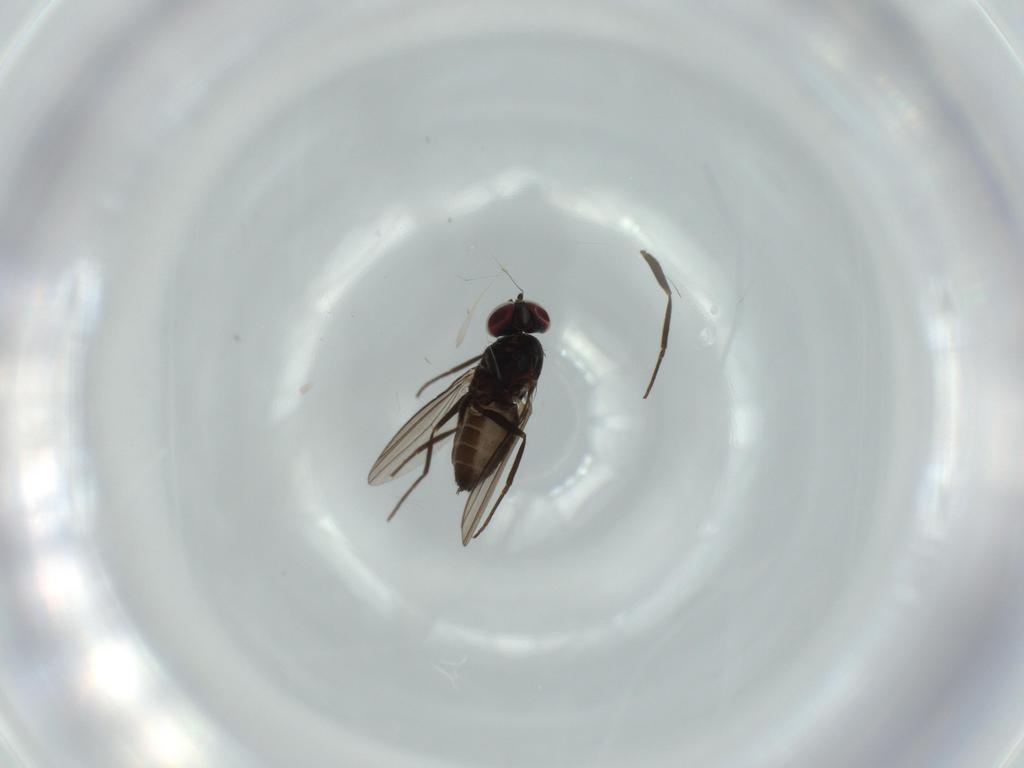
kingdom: Animalia
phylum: Arthropoda
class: Insecta
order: Diptera
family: Dolichopodidae
